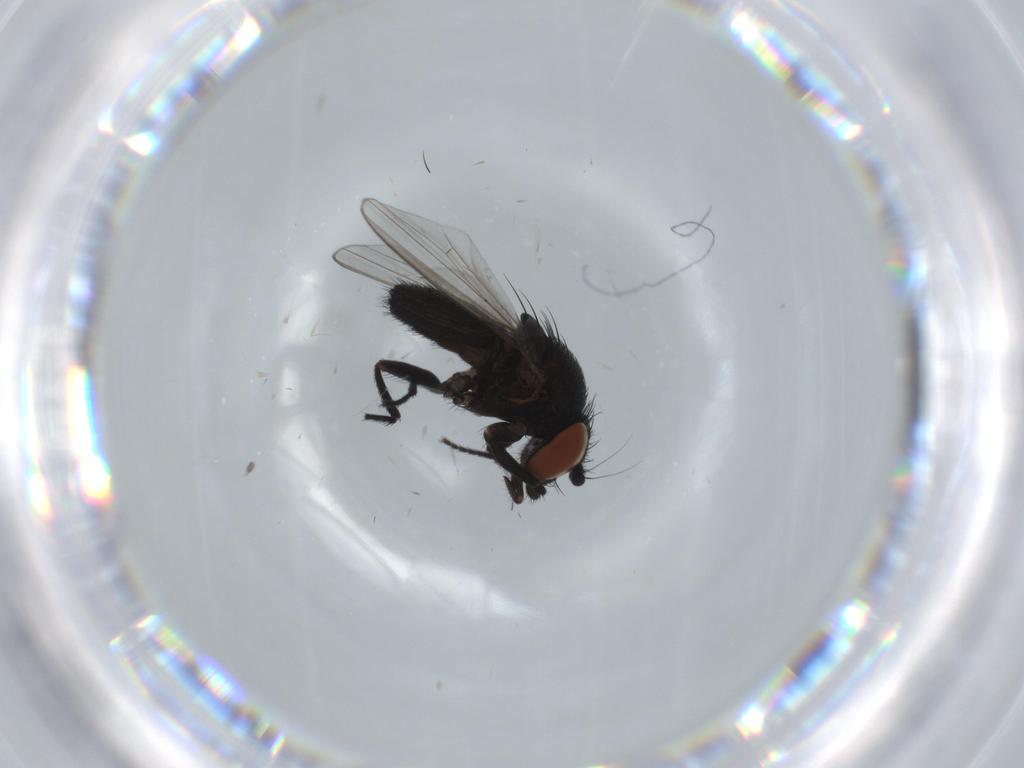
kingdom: Animalia
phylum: Arthropoda
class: Insecta
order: Diptera
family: Milichiidae
